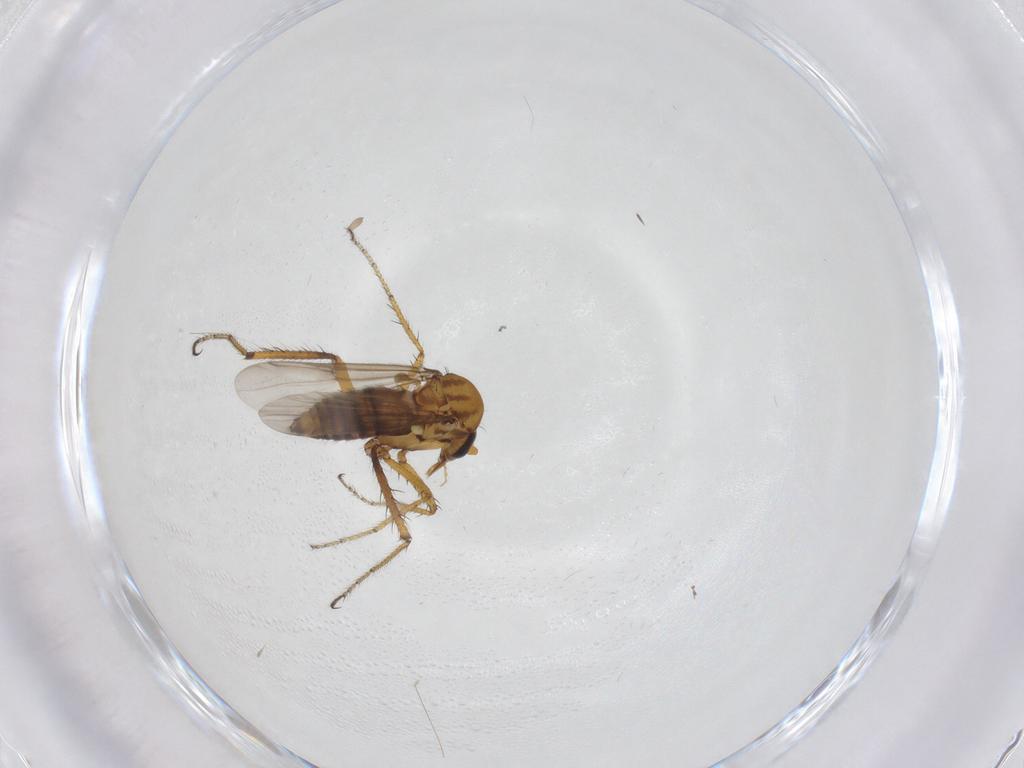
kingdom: Animalia
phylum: Arthropoda
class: Insecta
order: Diptera
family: Ceratopogonidae
